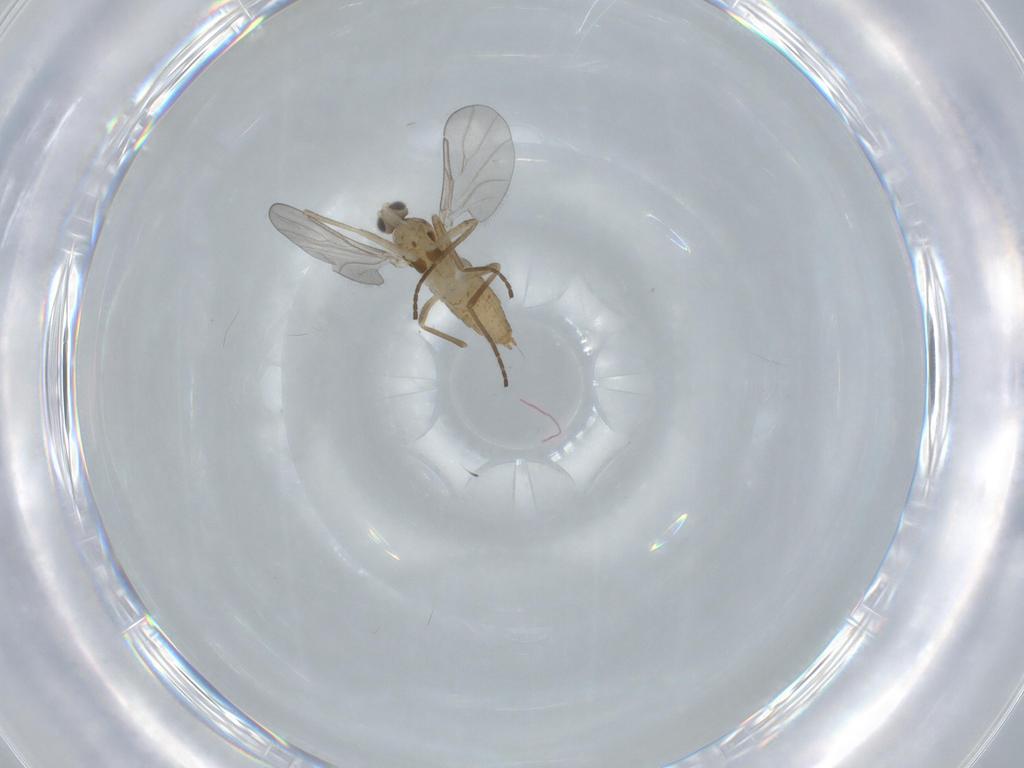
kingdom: Animalia
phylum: Arthropoda
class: Insecta
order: Diptera
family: Cecidomyiidae
